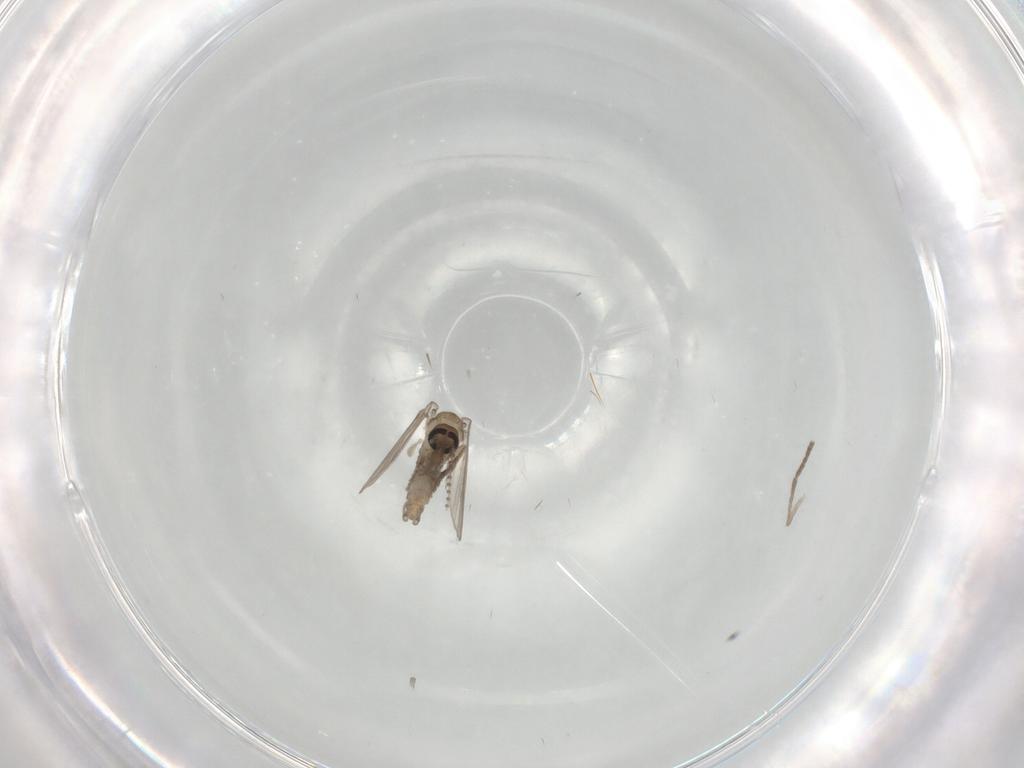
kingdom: Animalia
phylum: Arthropoda
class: Insecta
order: Diptera
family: Psychodidae
